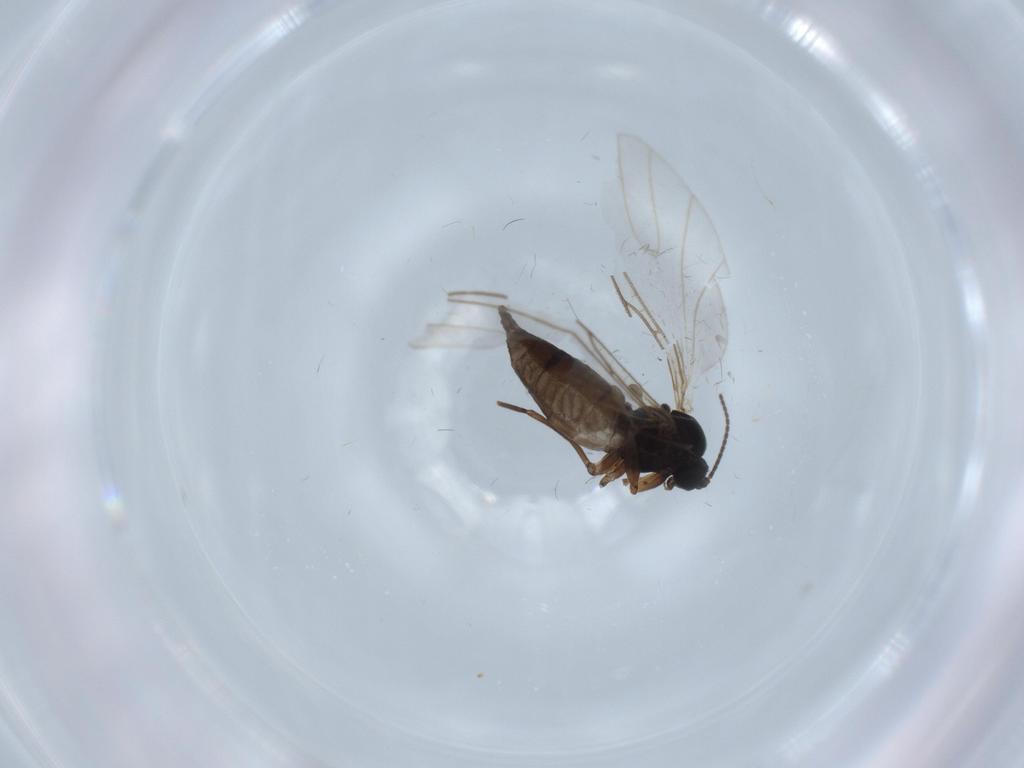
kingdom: Animalia
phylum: Arthropoda
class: Insecta
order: Diptera
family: Sciaridae
